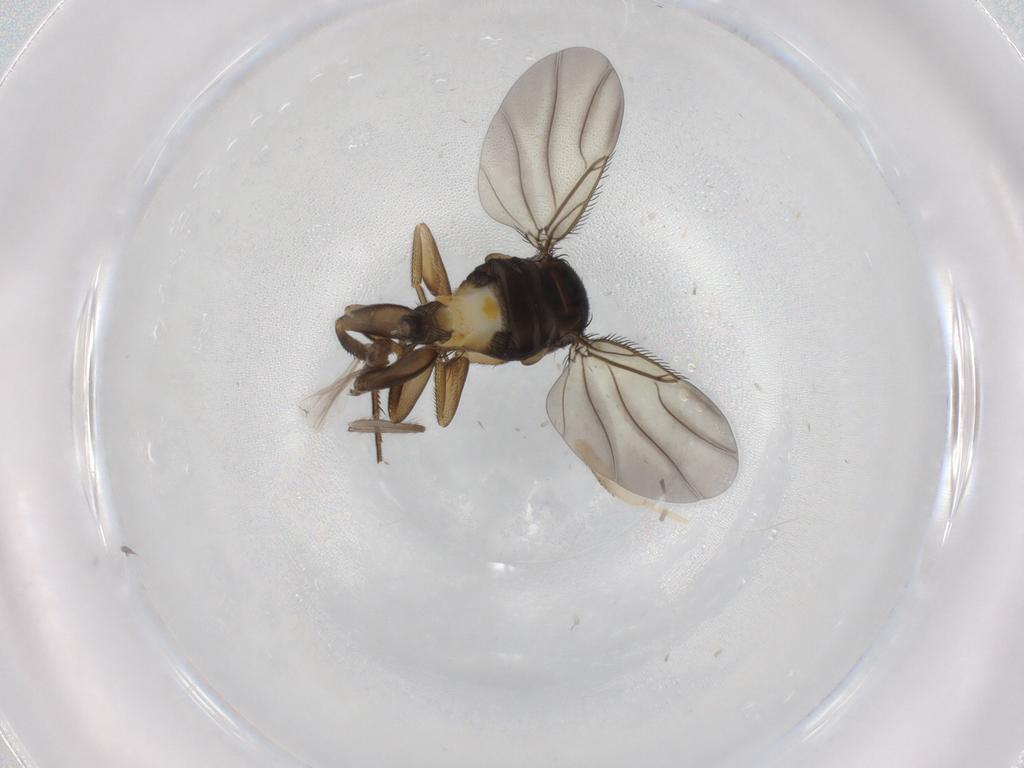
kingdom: Animalia
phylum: Arthropoda
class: Insecta
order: Diptera
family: Phoridae
